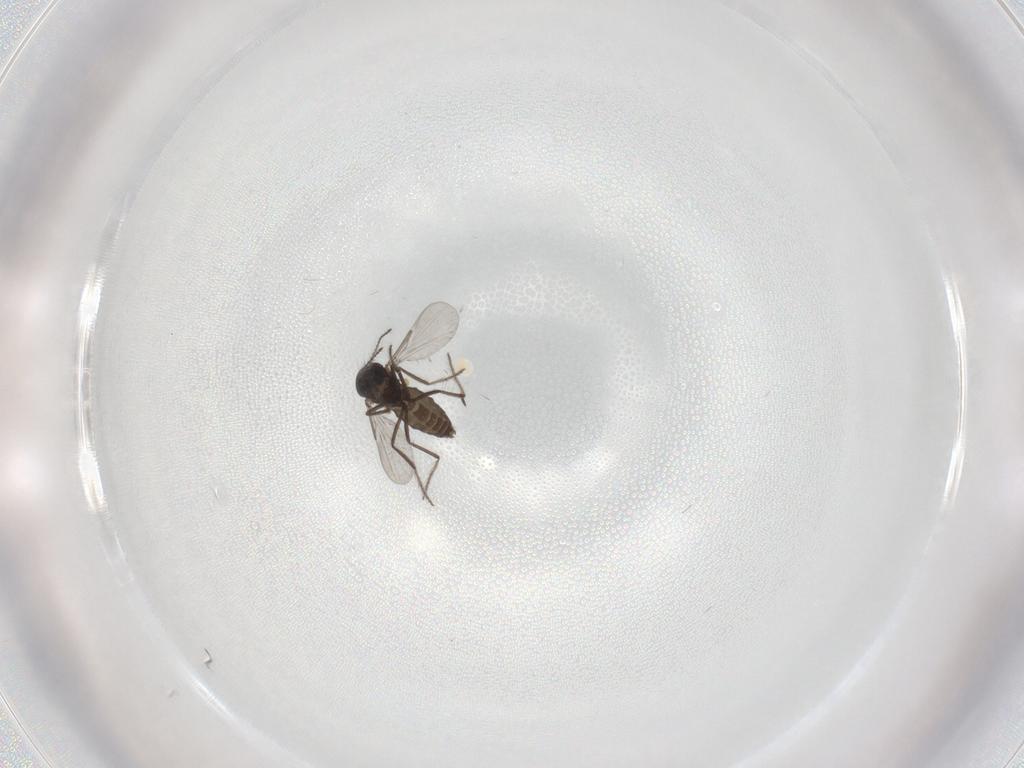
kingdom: Animalia
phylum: Arthropoda
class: Insecta
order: Diptera
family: Ceratopogonidae
